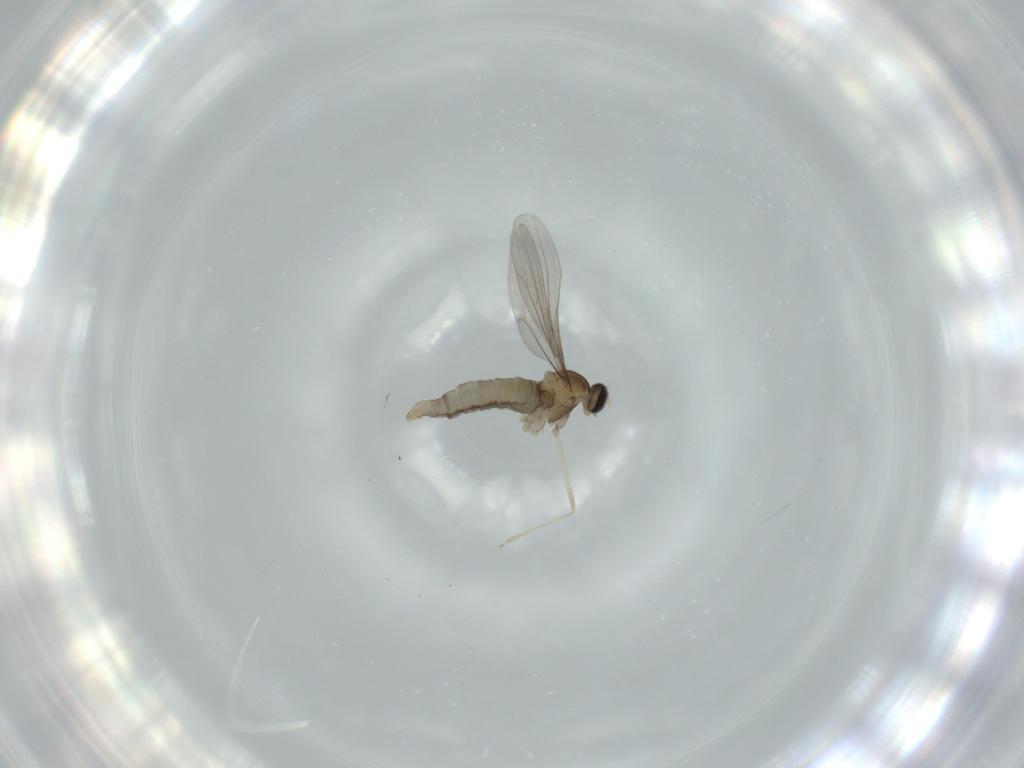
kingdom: Animalia
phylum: Arthropoda
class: Insecta
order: Diptera
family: Cecidomyiidae
